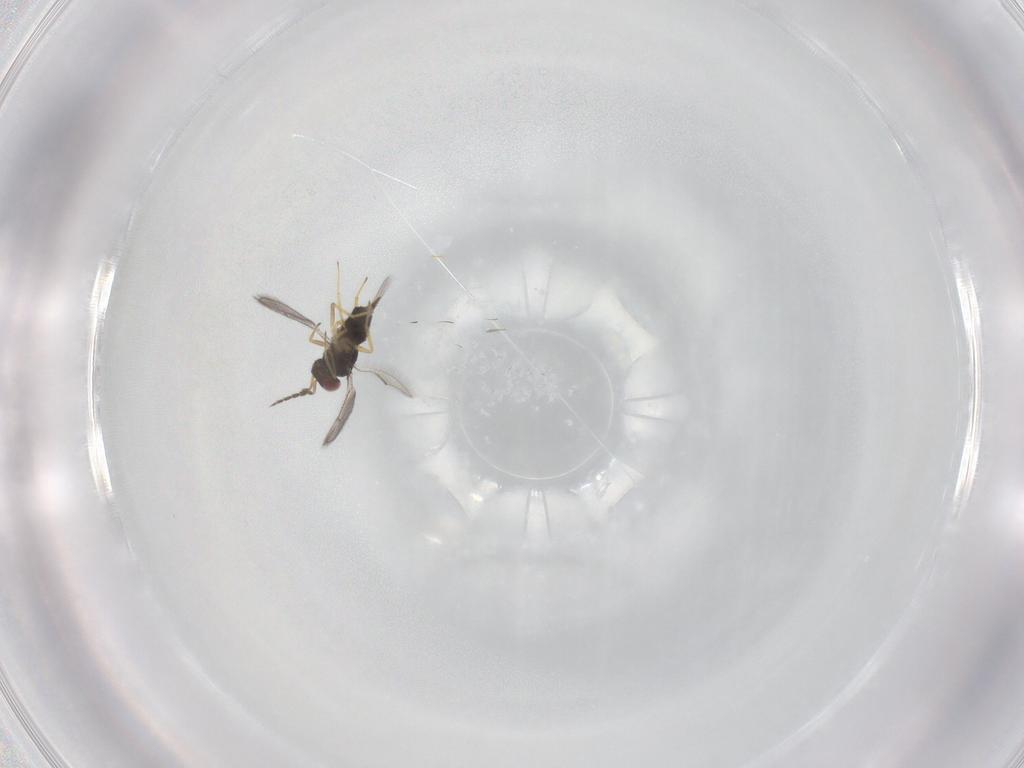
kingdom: Animalia
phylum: Arthropoda
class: Insecta
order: Hymenoptera
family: Eulophidae
